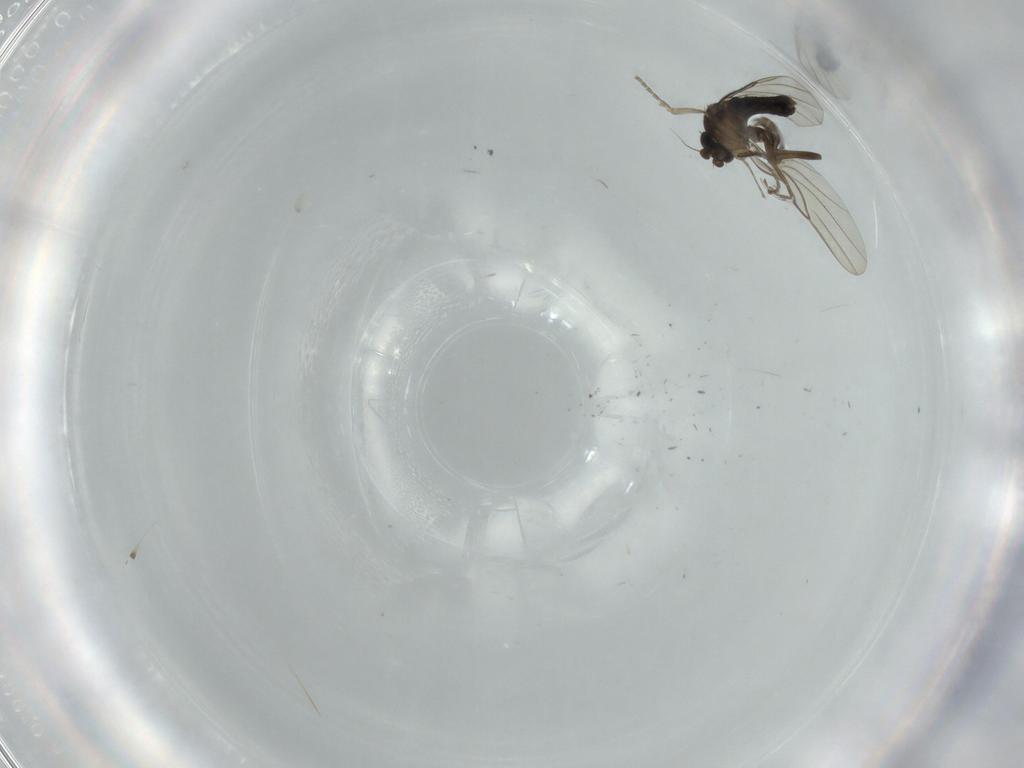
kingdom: Animalia
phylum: Arthropoda
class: Insecta
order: Diptera
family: Phoridae
